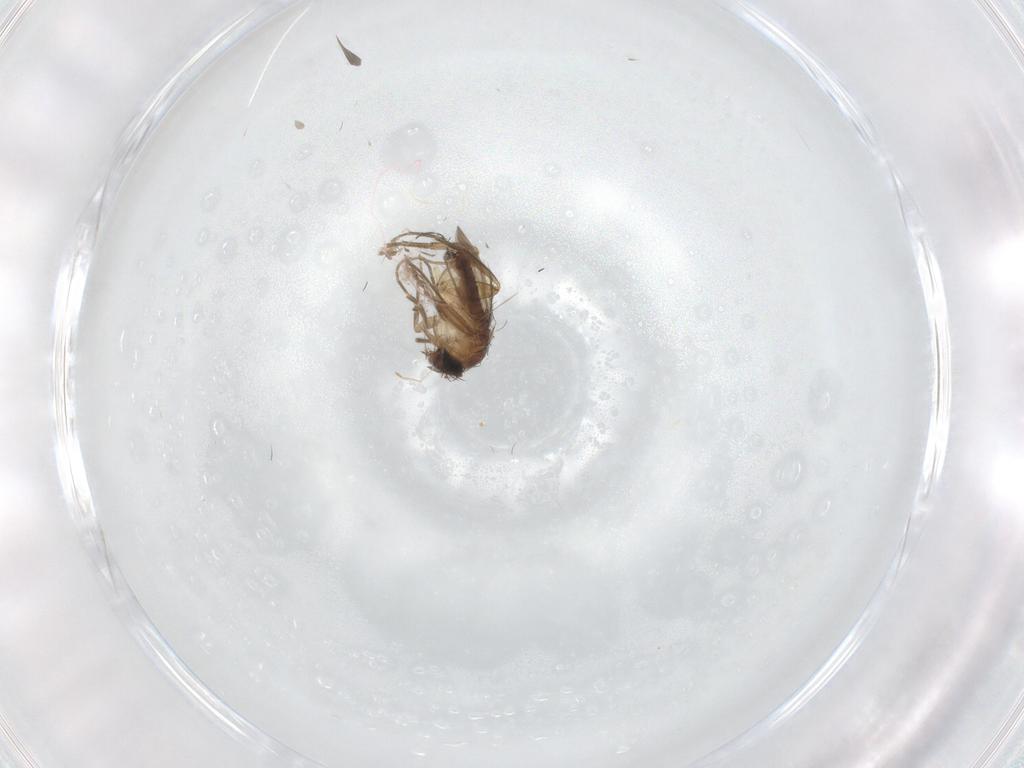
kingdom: Animalia
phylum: Arthropoda
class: Insecta
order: Diptera
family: Phoridae
